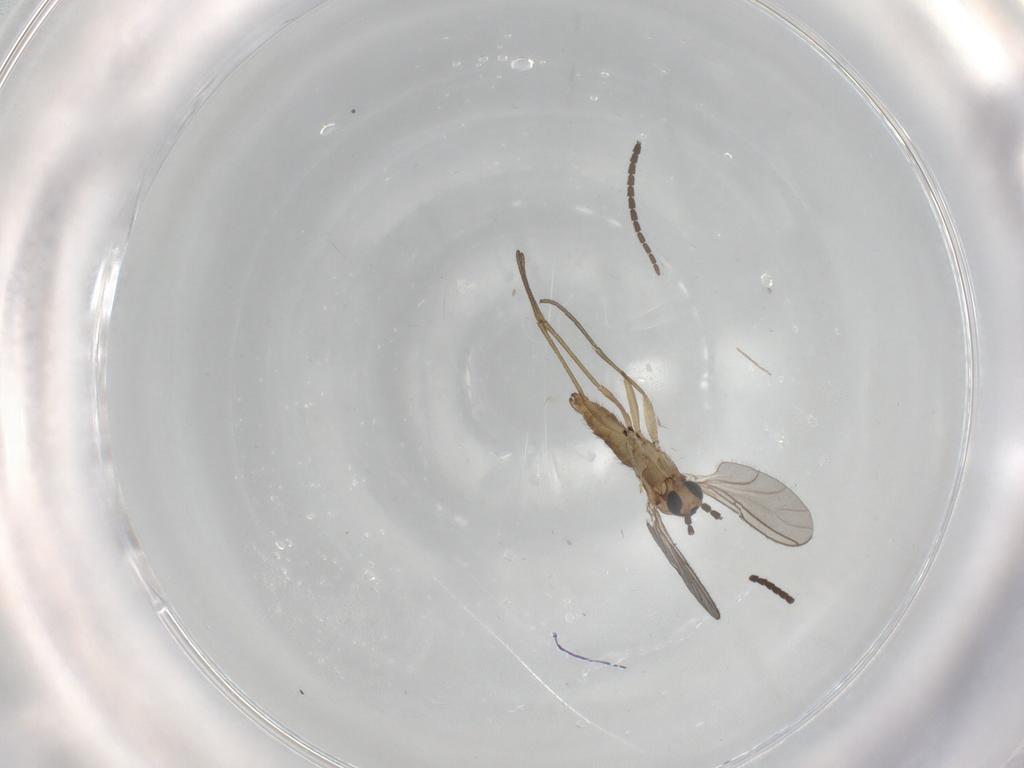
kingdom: Animalia
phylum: Arthropoda
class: Insecta
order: Diptera
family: Sciaridae
